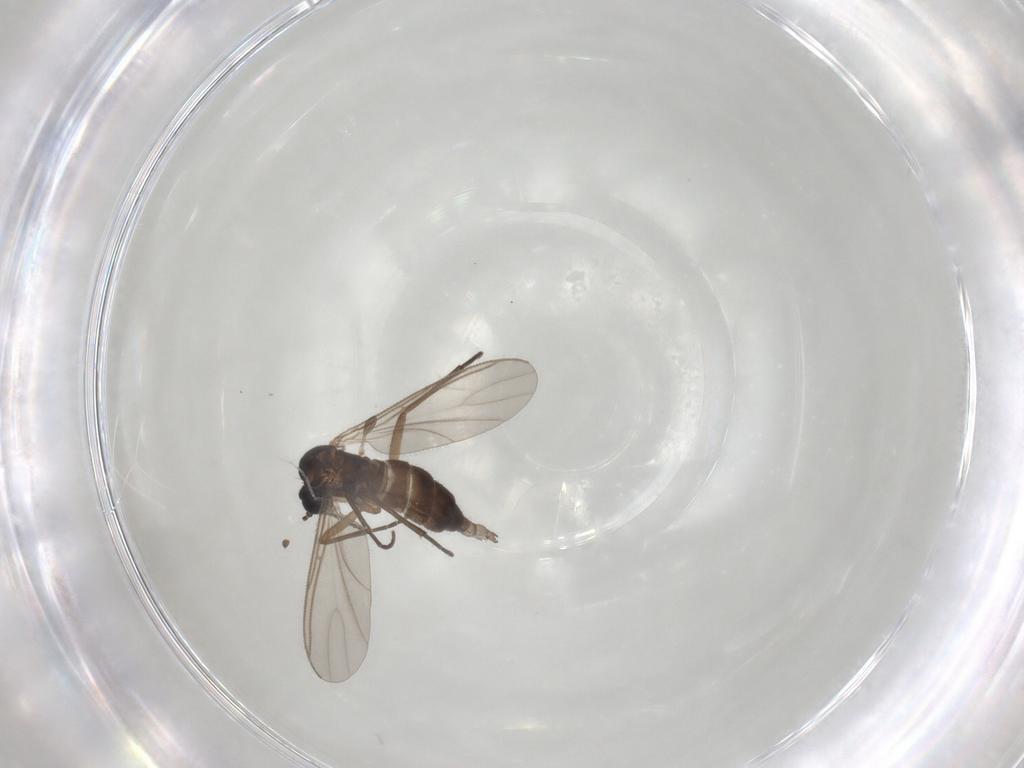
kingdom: Animalia
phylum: Arthropoda
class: Insecta
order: Diptera
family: Sciaridae
